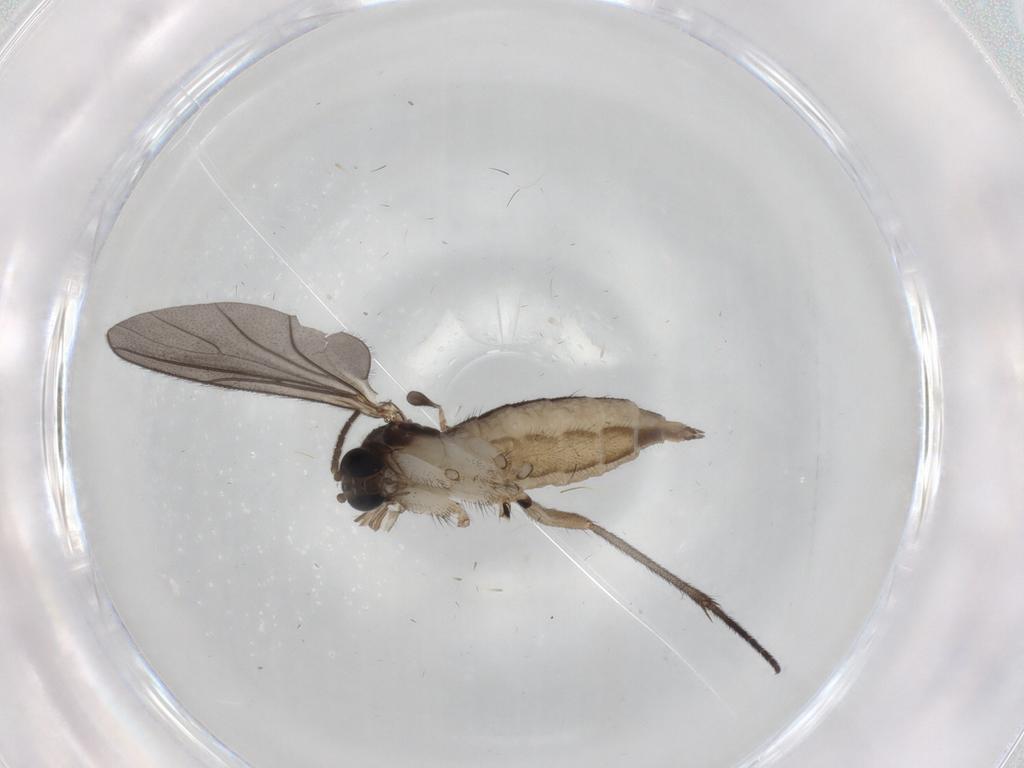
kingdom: Animalia
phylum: Arthropoda
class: Insecta
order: Diptera
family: Sciaridae
